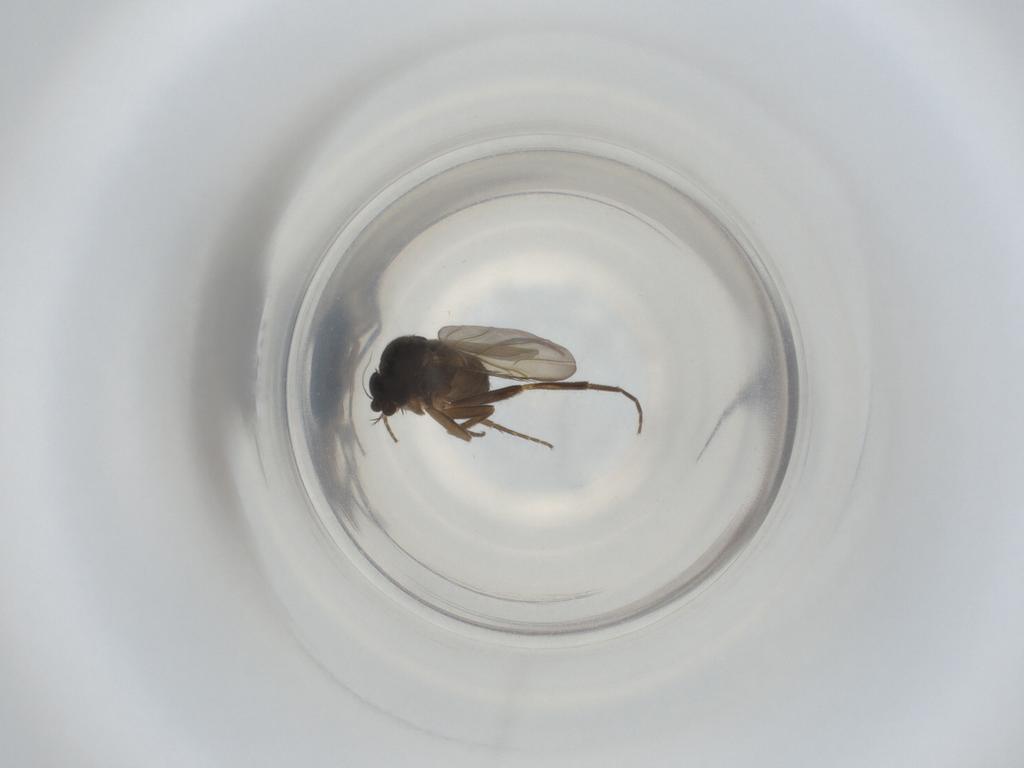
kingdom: Animalia
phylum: Arthropoda
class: Insecta
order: Diptera
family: Phoridae
